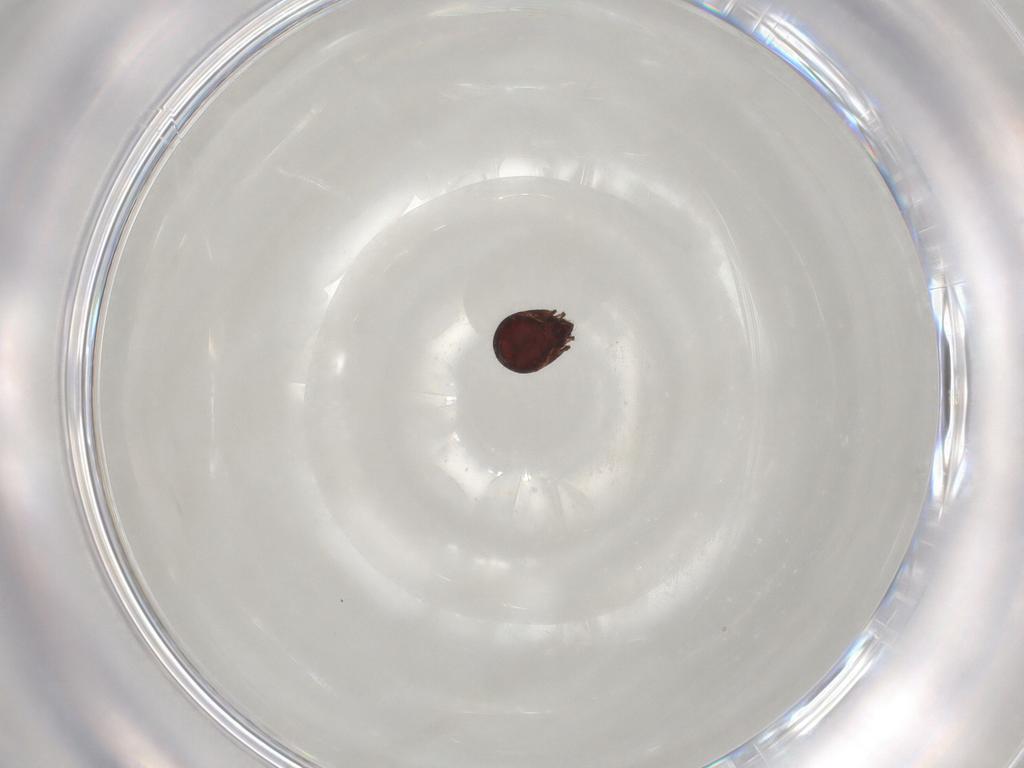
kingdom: Animalia
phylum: Arthropoda
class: Arachnida
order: Sarcoptiformes
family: Humerobatidae
